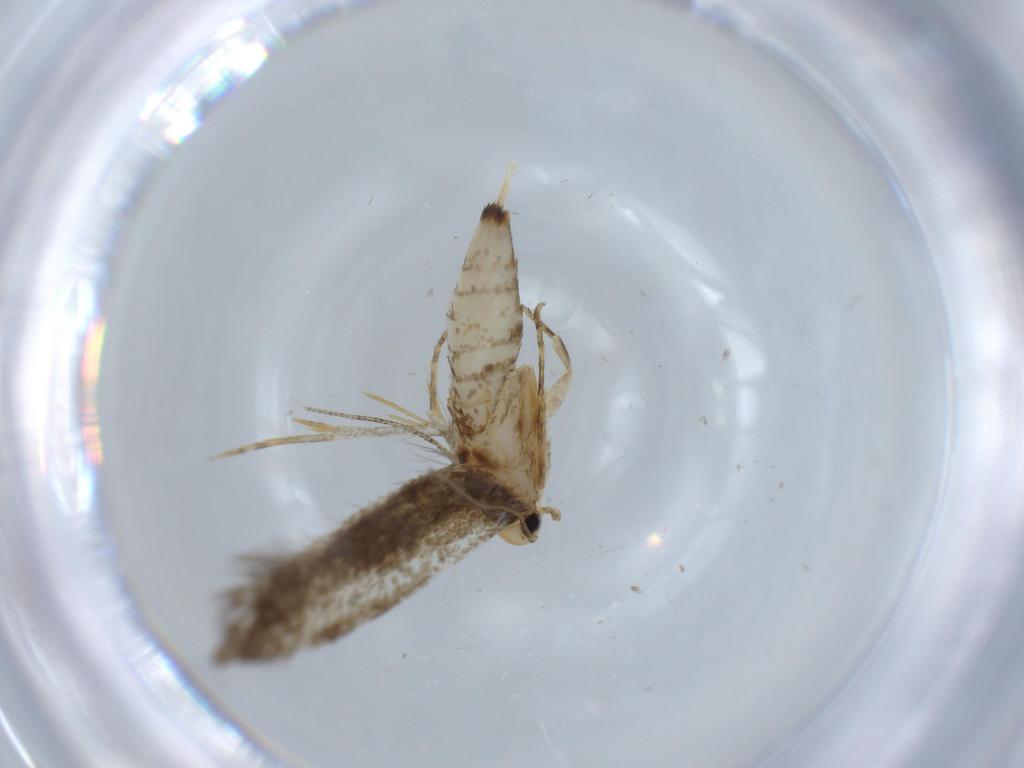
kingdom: Animalia
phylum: Arthropoda
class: Insecta
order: Lepidoptera
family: Tineidae
